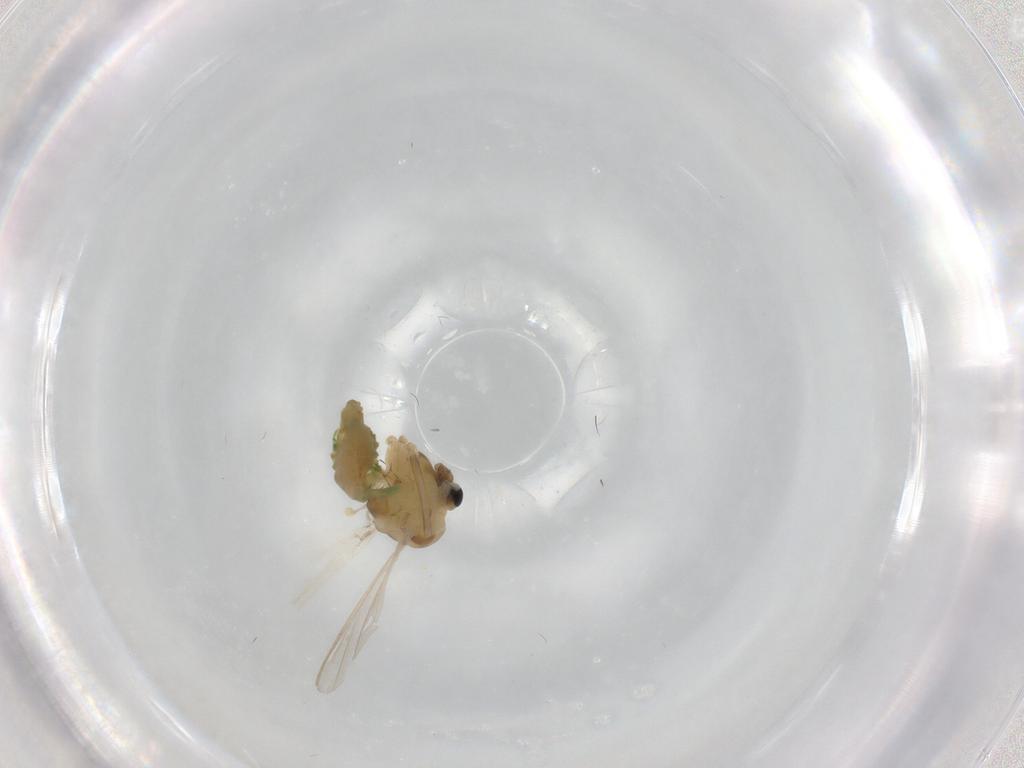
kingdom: Animalia
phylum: Arthropoda
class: Insecta
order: Diptera
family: Chironomidae
